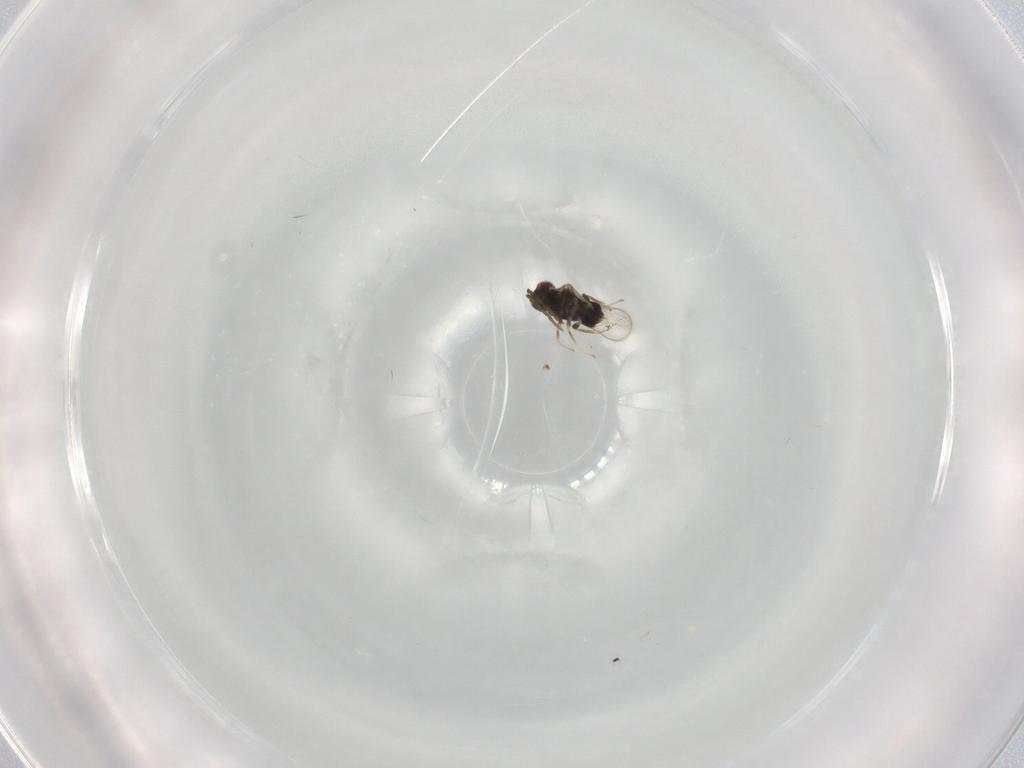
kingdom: Animalia
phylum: Arthropoda
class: Insecta
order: Hymenoptera
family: Aphelinidae
